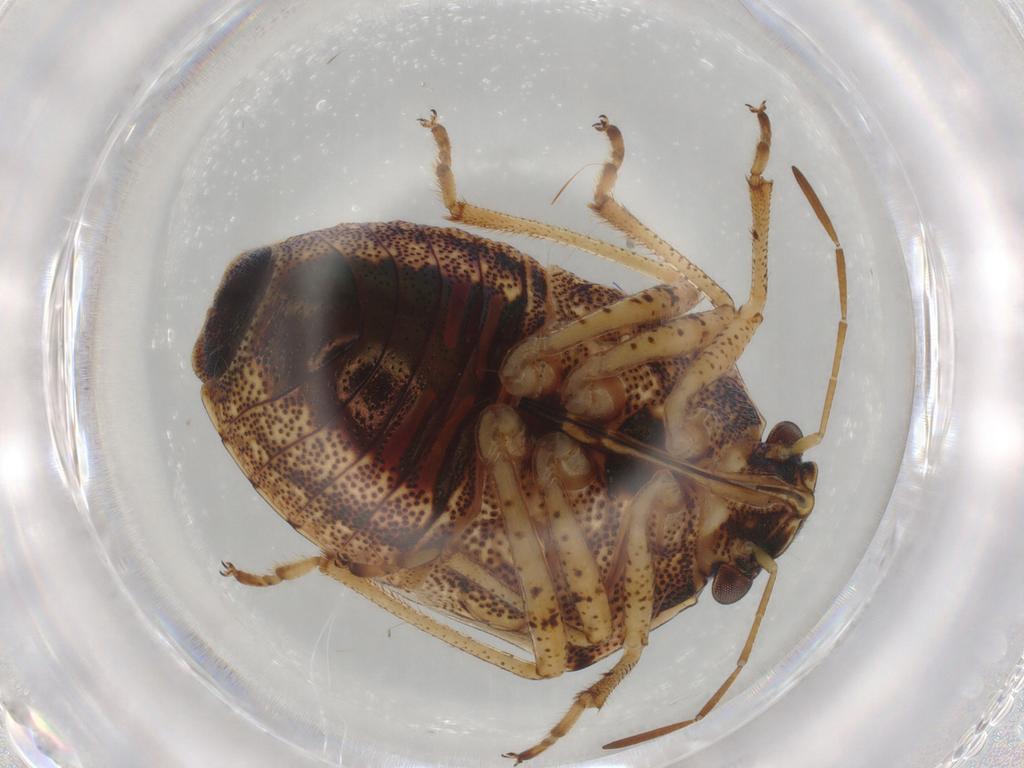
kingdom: Animalia
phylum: Arthropoda
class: Insecta
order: Hemiptera
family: Cicadellidae
